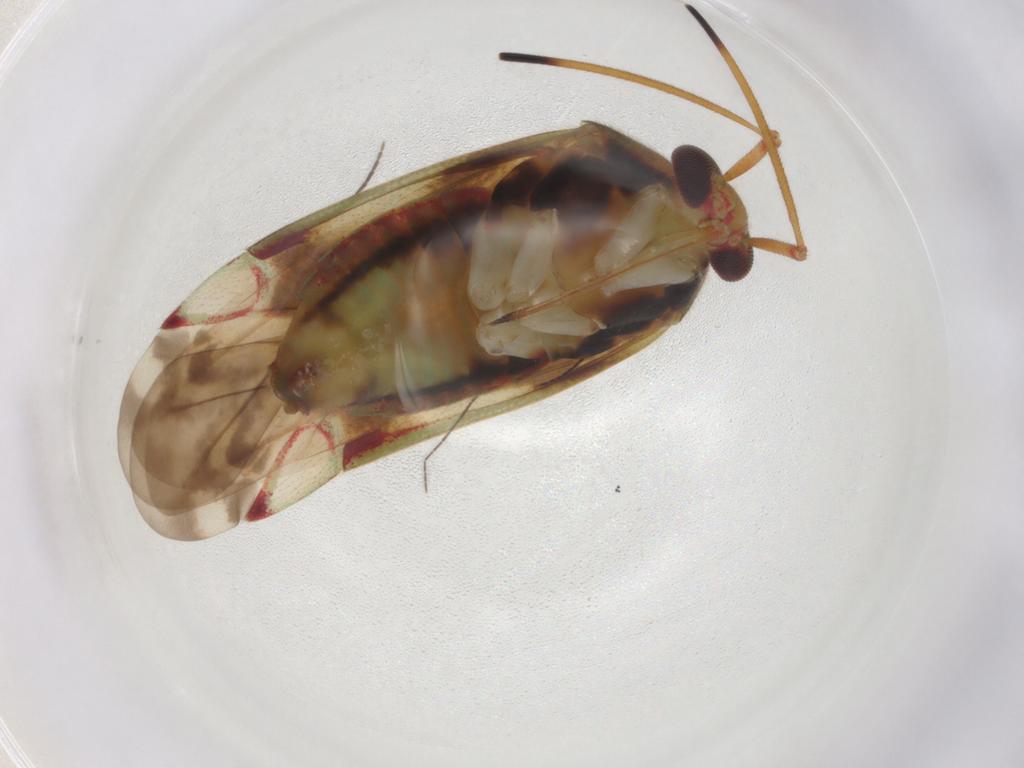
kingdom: Animalia
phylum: Arthropoda
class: Insecta
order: Hemiptera
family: Miridae
